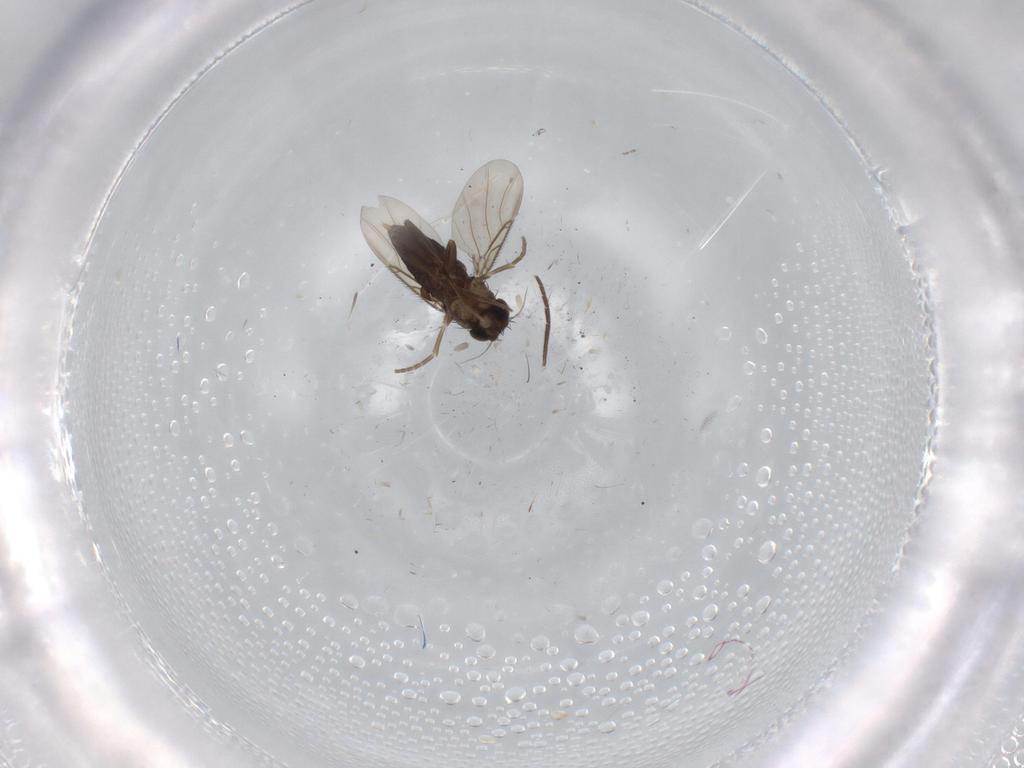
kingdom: Animalia
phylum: Arthropoda
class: Insecta
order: Diptera
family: Phoridae
